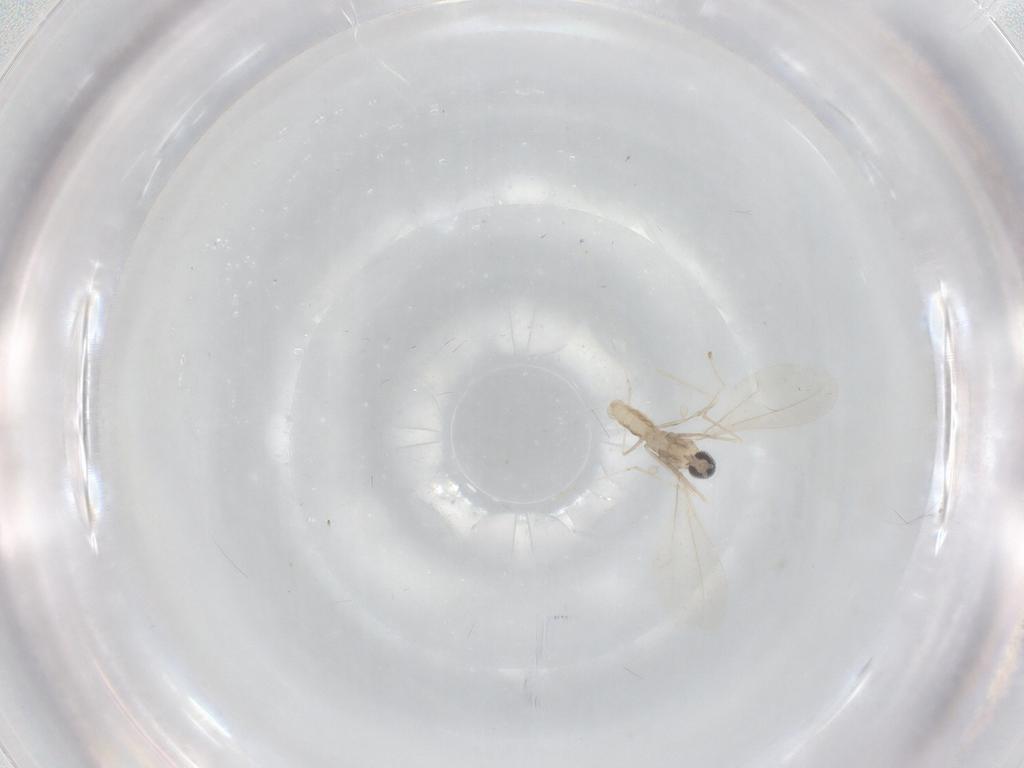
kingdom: Animalia
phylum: Arthropoda
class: Insecta
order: Diptera
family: Cecidomyiidae
